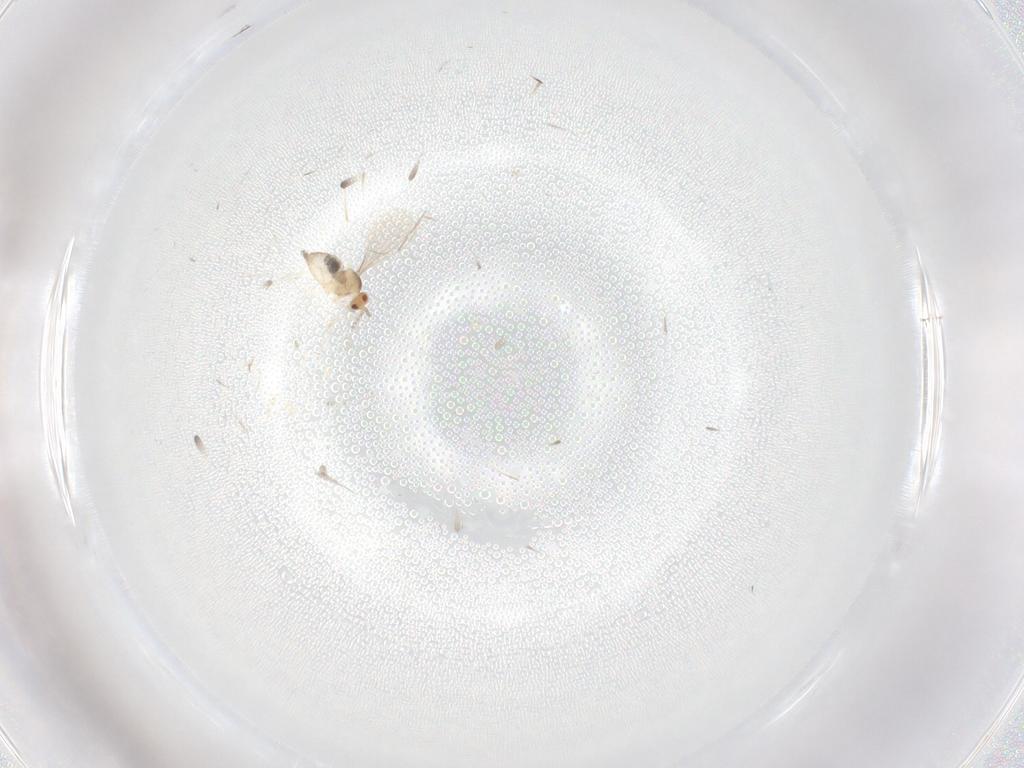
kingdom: Animalia
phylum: Arthropoda
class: Insecta
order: Diptera
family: Cecidomyiidae
